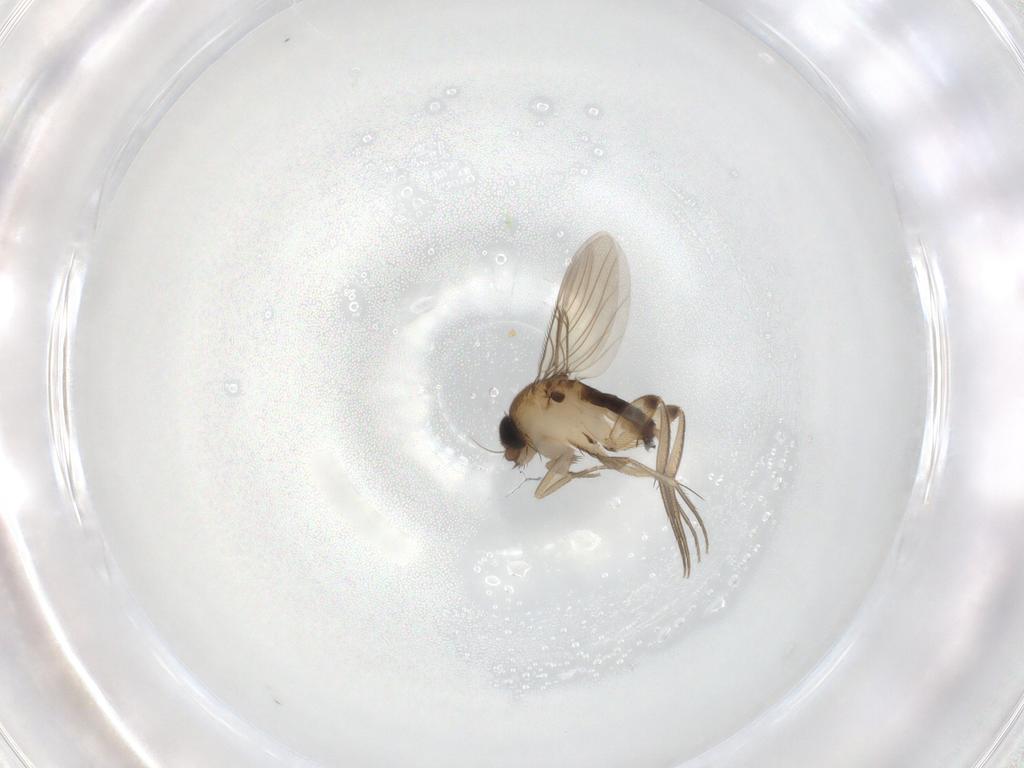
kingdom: Animalia
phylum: Arthropoda
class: Insecta
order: Diptera
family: Phoridae
